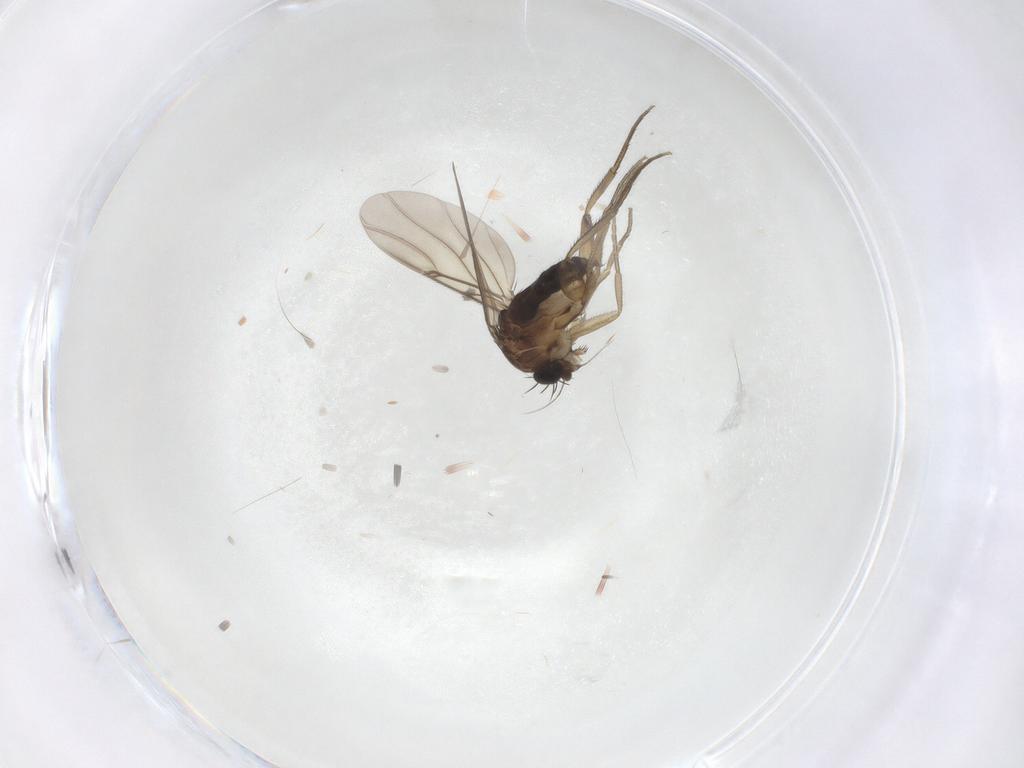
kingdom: Animalia
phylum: Arthropoda
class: Insecta
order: Diptera
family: Phoridae
